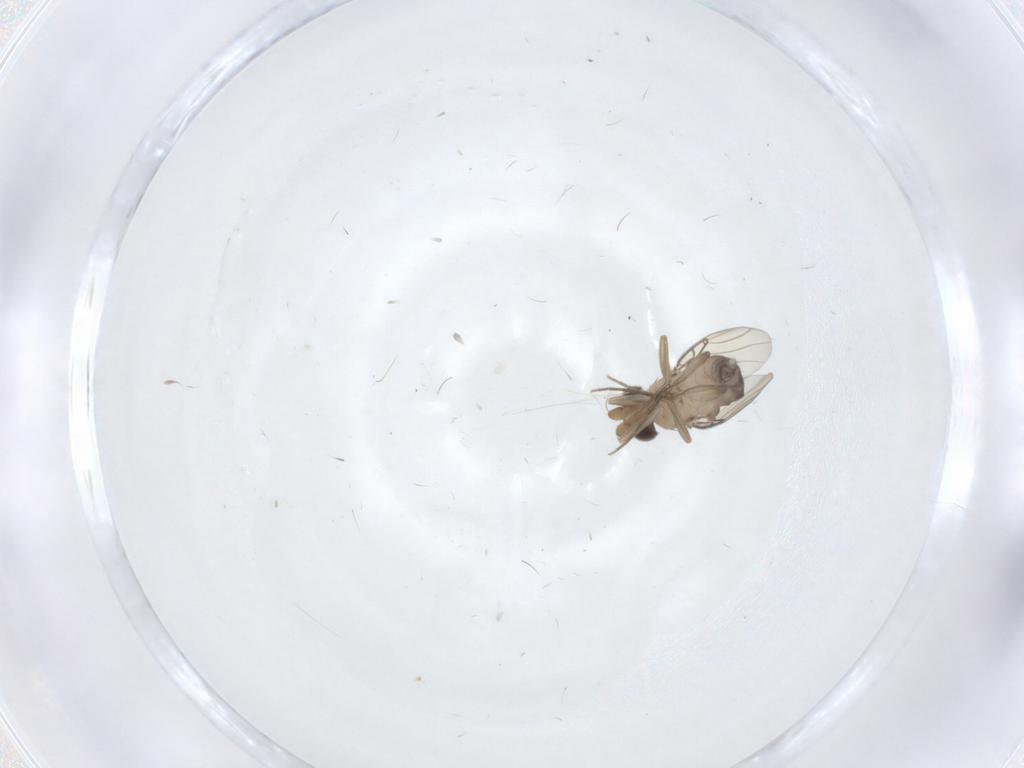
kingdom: Animalia
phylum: Arthropoda
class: Insecta
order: Diptera
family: Phoridae
